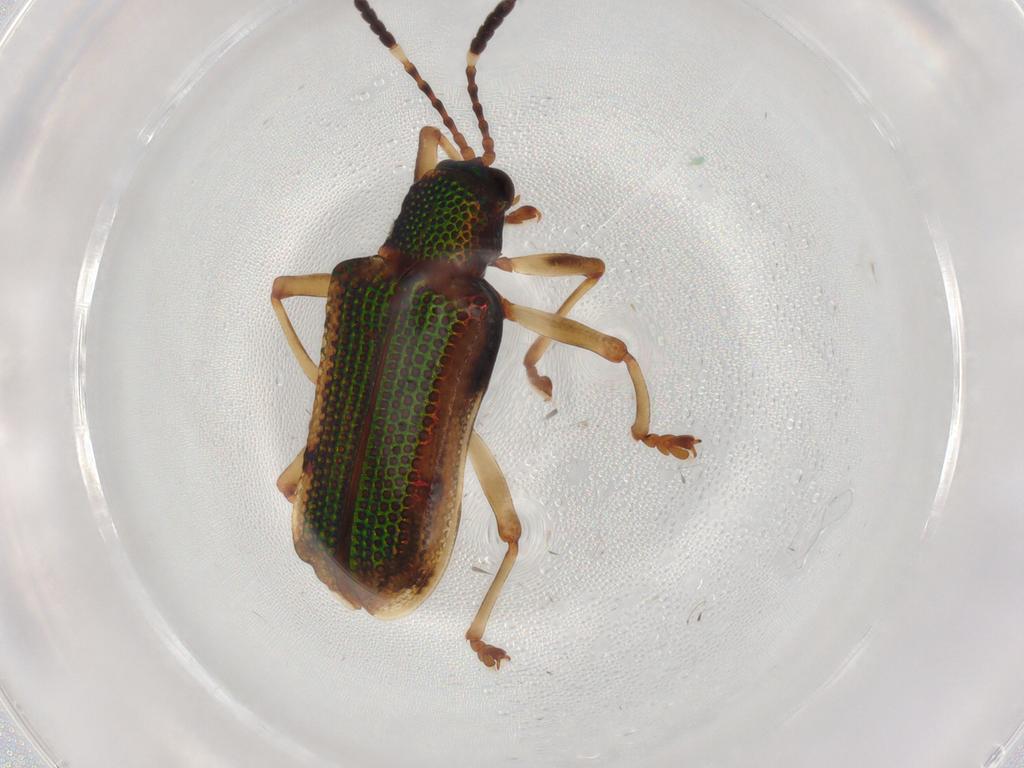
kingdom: Animalia
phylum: Arthropoda
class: Insecta
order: Coleoptera
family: Chrysomelidae
